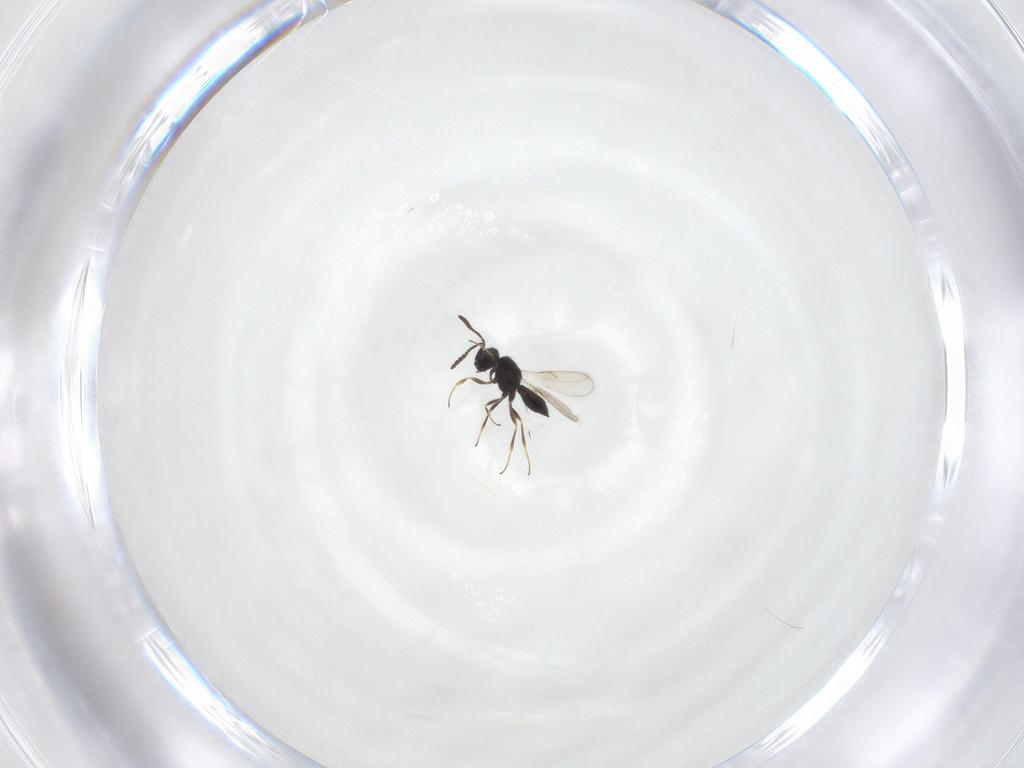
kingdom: Animalia
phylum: Arthropoda
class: Insecta
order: Hymenoptera
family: Scelionidae
